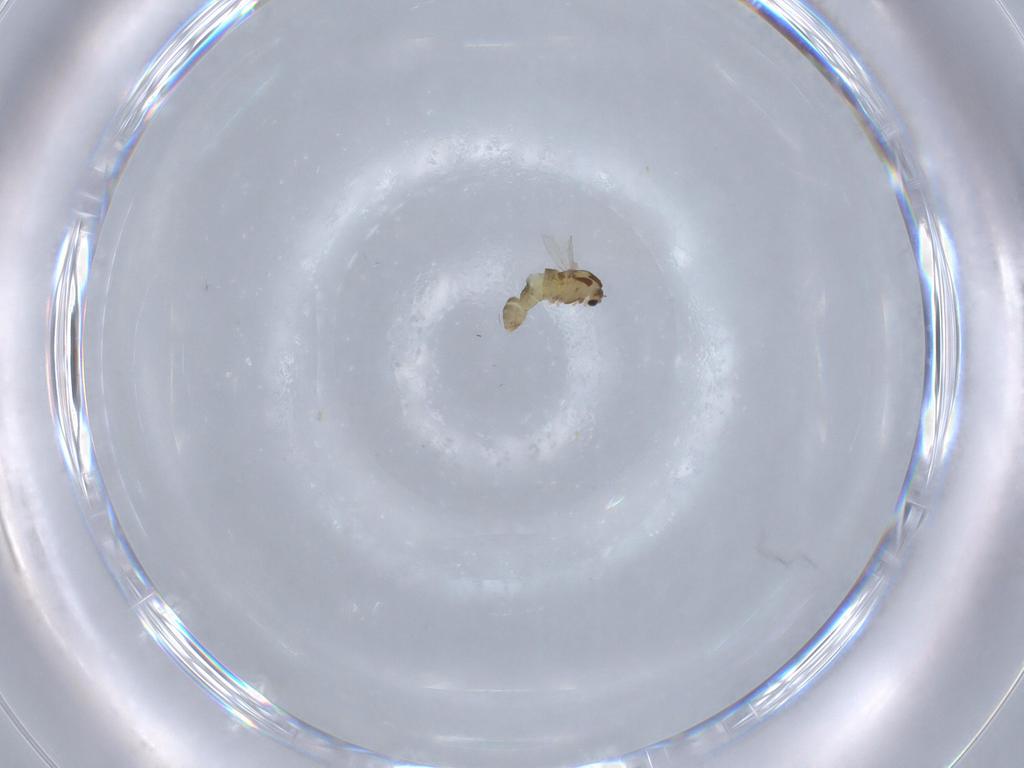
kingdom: Animalia
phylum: Arthropoda
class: Insecta
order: Diptera
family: Chironomidae
